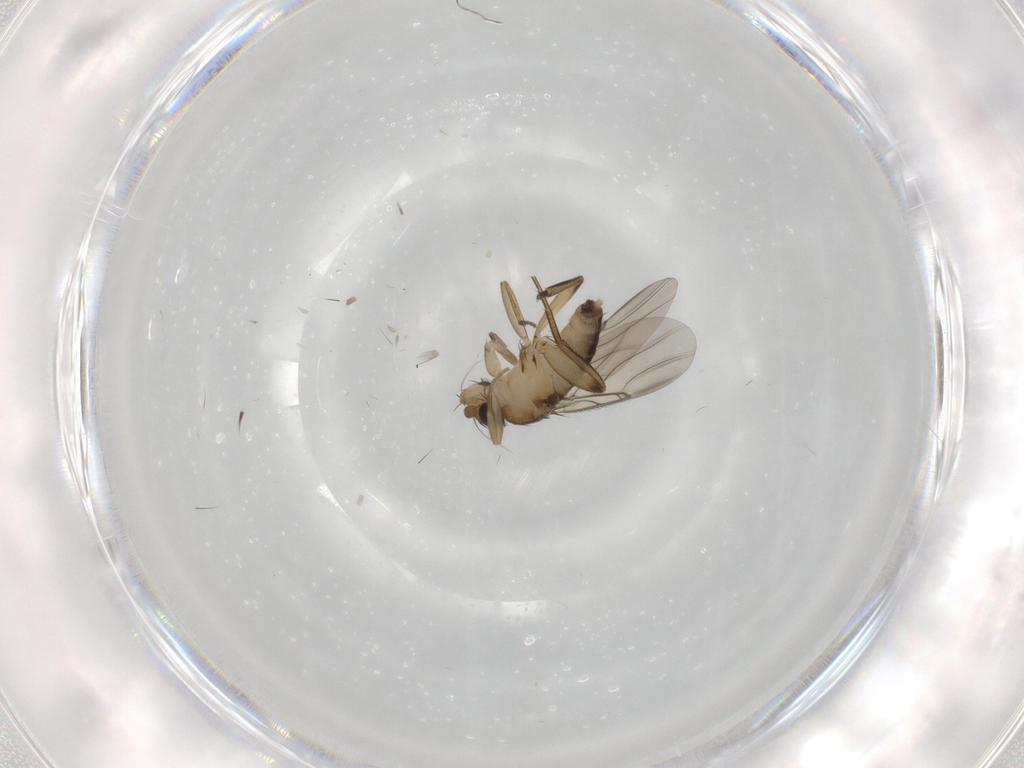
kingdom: Animalia
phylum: Arthropoda
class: Insecta
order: Diptera
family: Phoridae
